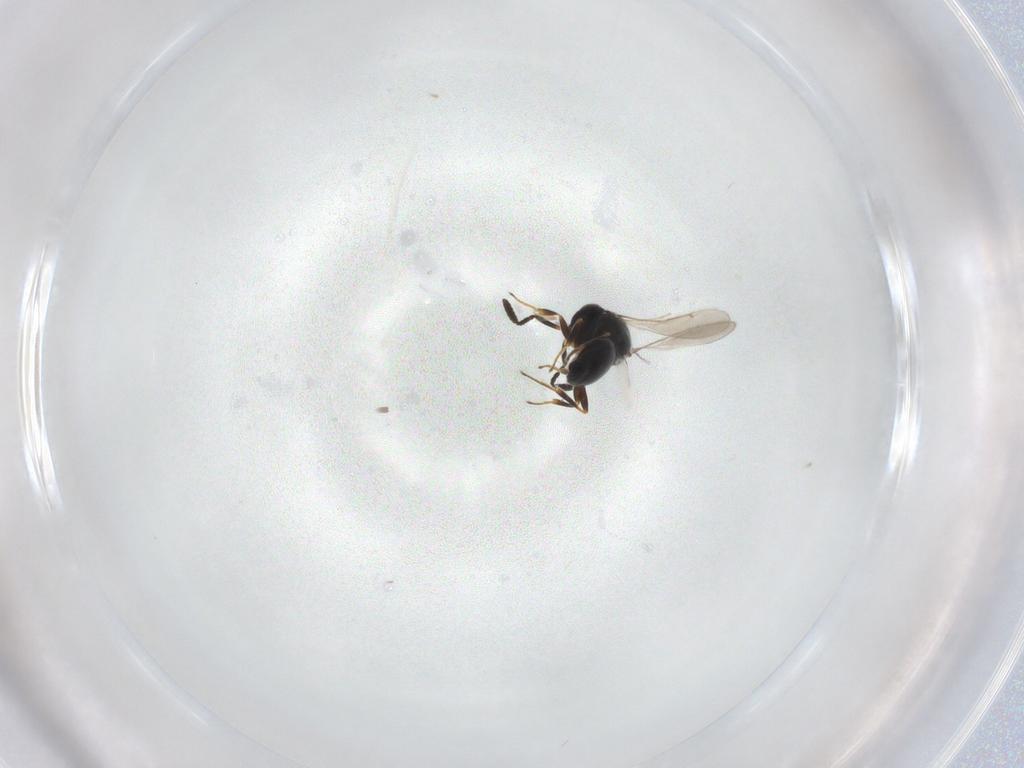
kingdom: Animalia
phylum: Arthropoda
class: Insecta
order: Hymenoptera
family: Scelionidae
